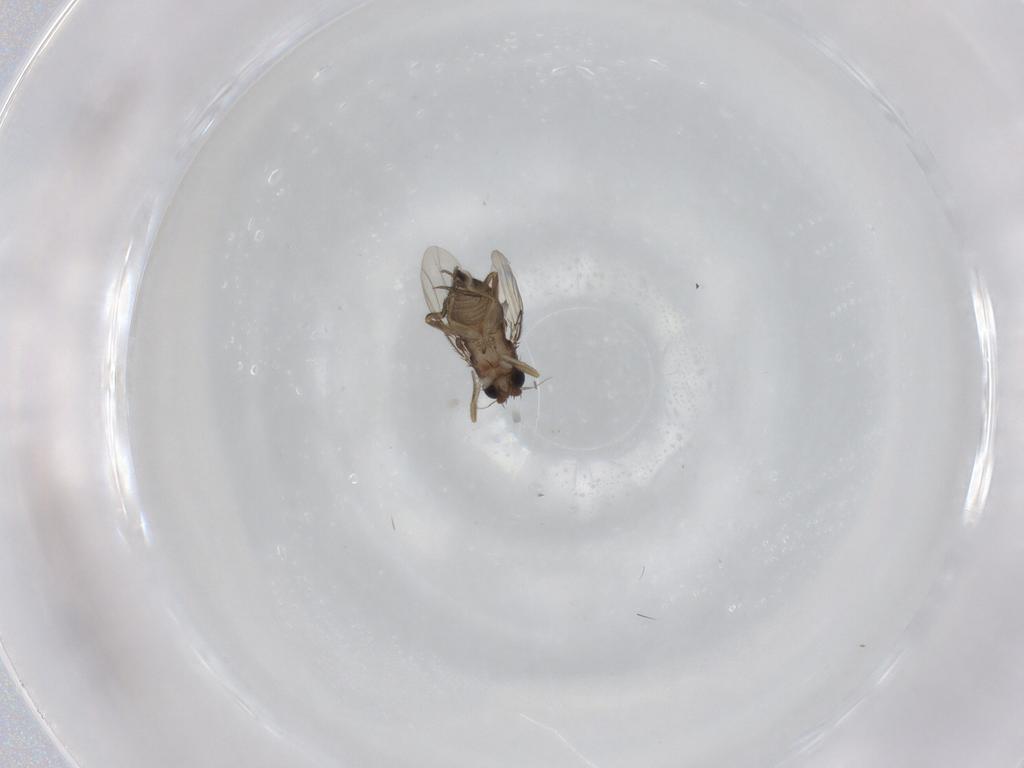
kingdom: Animalia
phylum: Arthropoda
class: Insecta
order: Diptera
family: Phoridae
